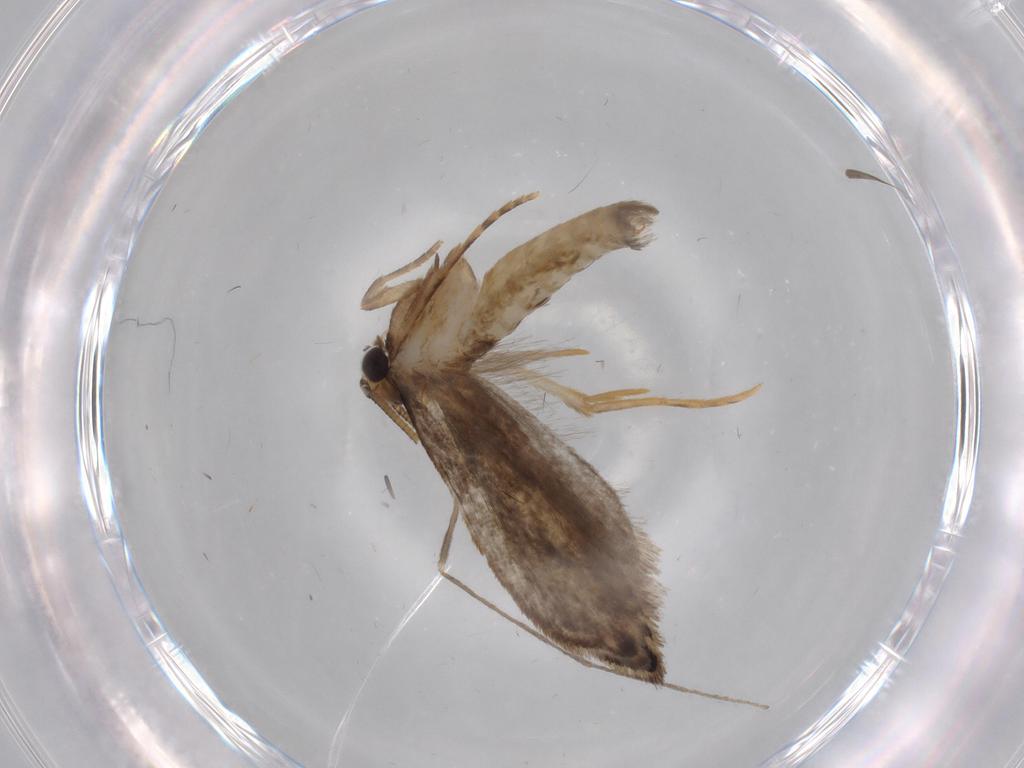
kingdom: Animalia
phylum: Arthropoda
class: Insecta
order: Lepidoptera
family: Tineidae
